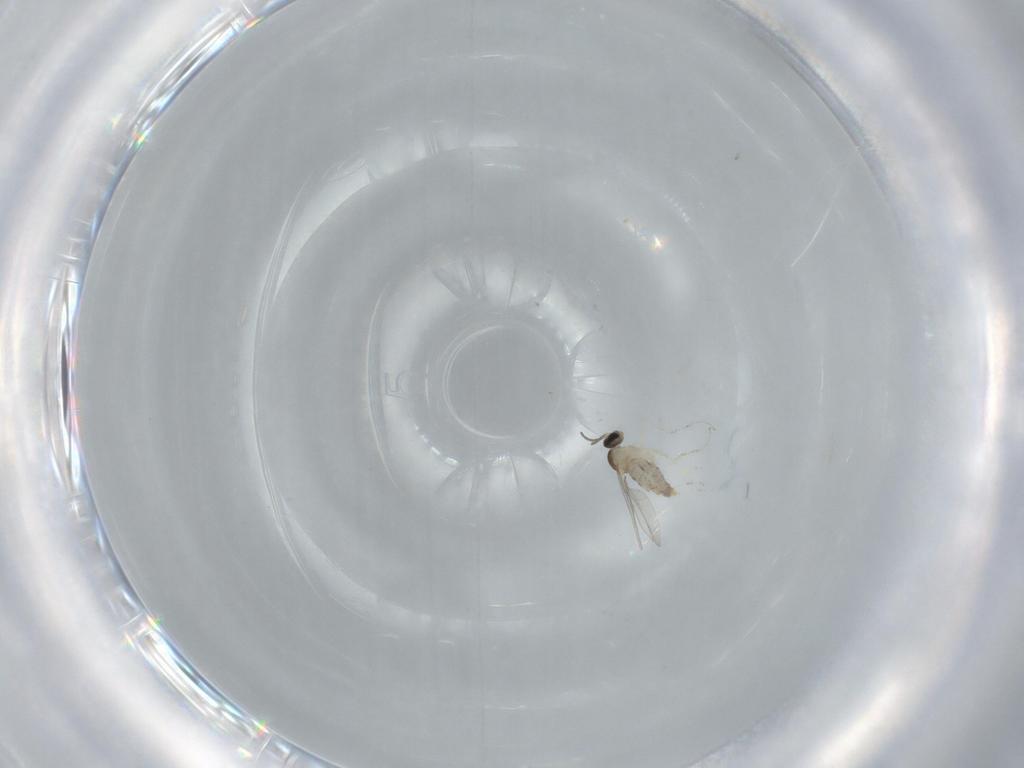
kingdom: Animalia
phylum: Arthropoda
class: Insecta
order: Diptera
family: Cecidomyiidae
